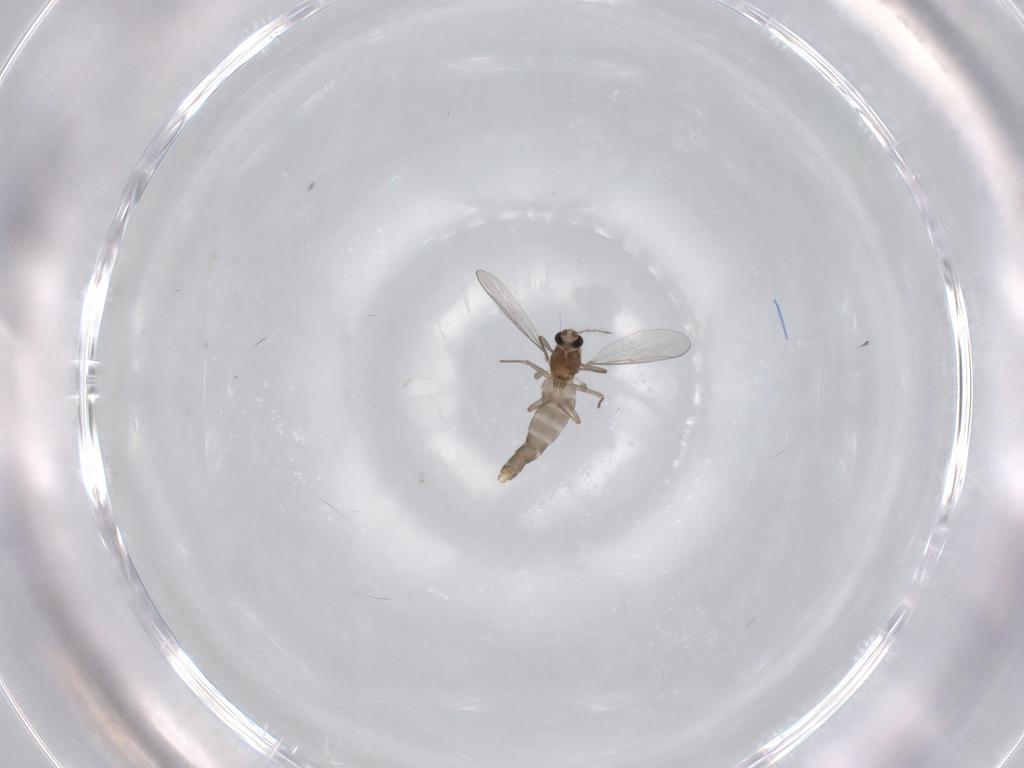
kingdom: Animalia
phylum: Arthropoda
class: Insecta
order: Diptera
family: Chironomidae
